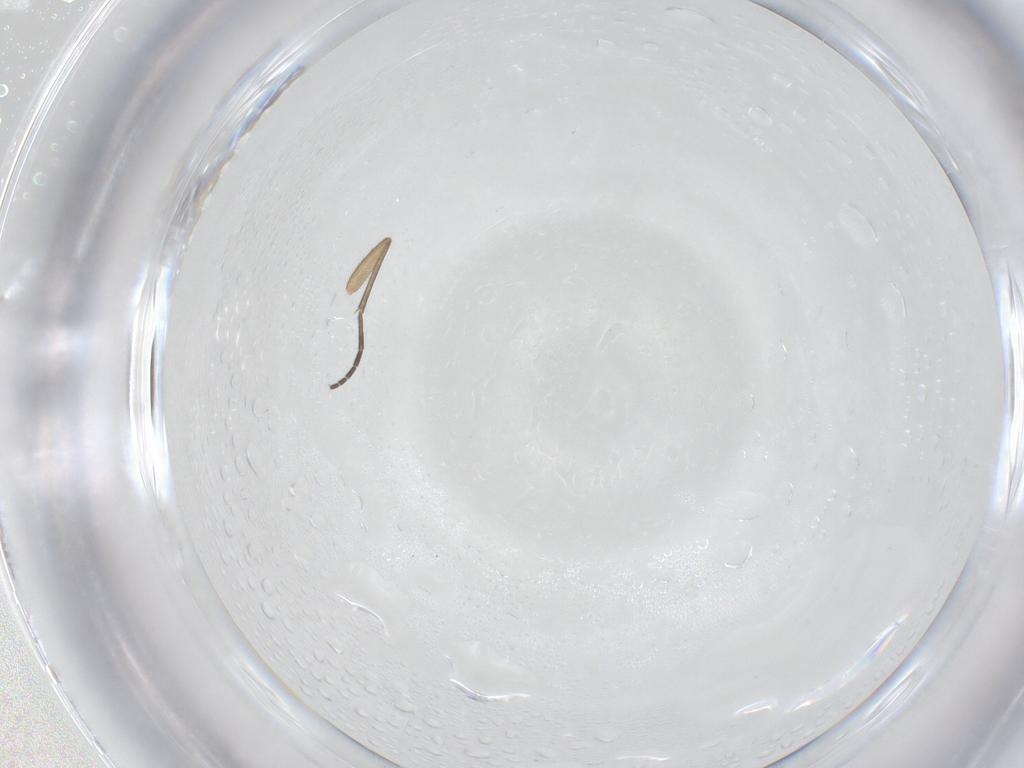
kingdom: Animalia
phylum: Arthropoda
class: Insecta
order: Diptera
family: Sciaridae
